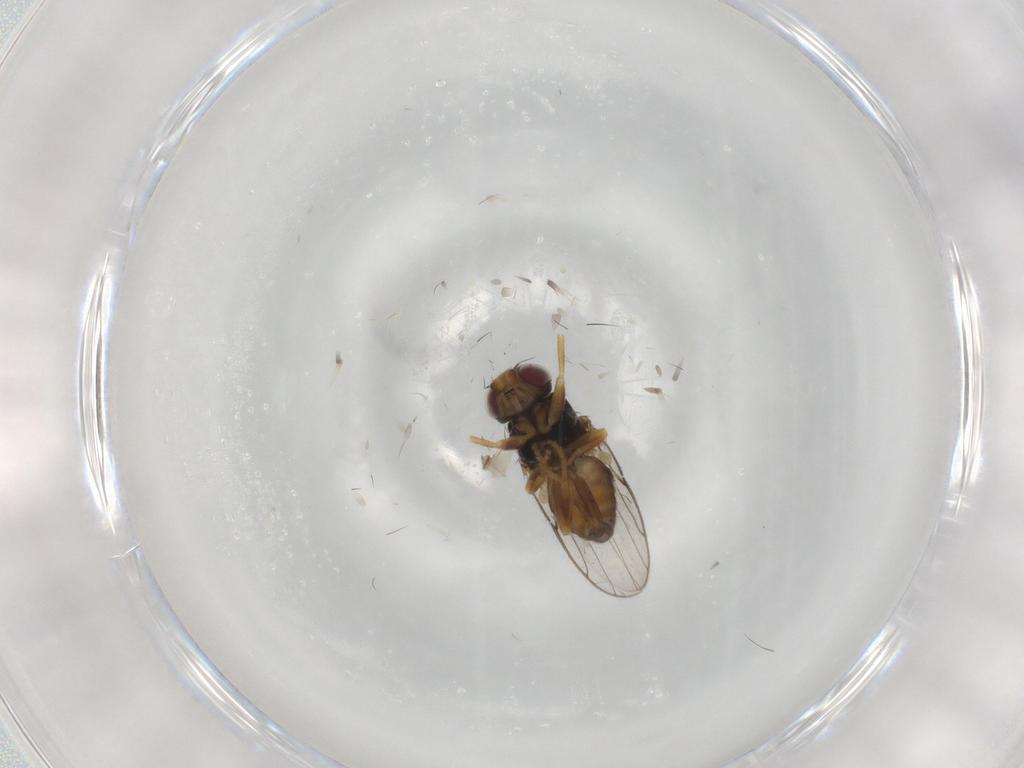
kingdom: Animalia
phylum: Arthropoda
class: Insecta
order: Diptera
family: Chloropidae
